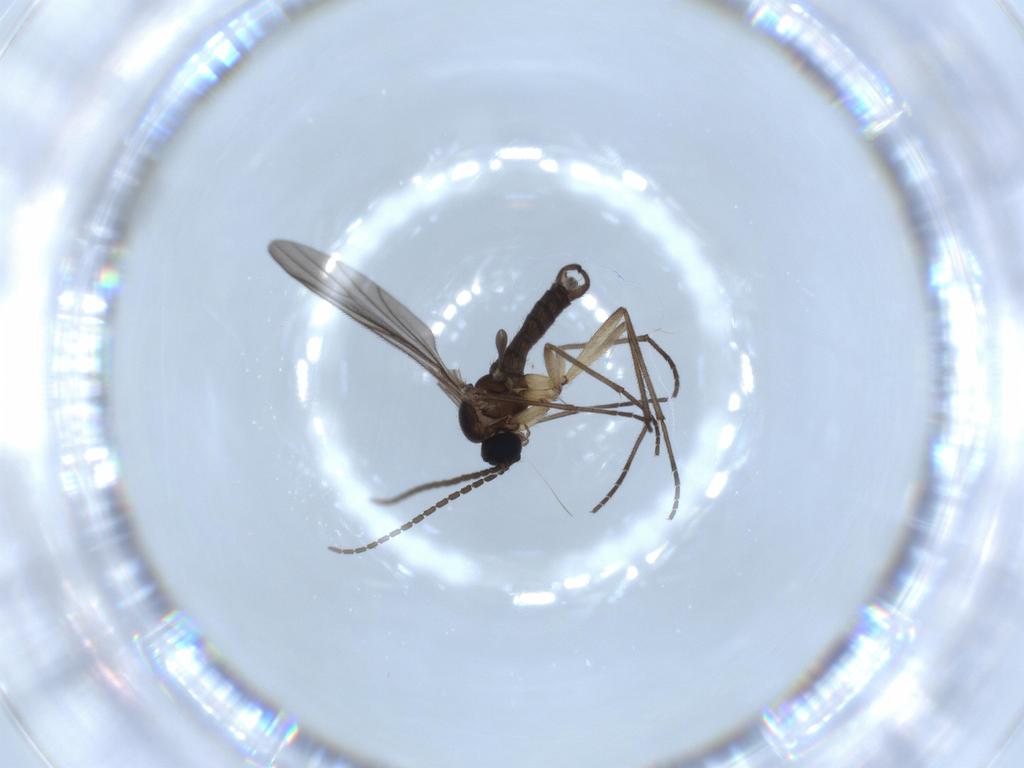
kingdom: Animalia
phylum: Arthropoda
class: Insecta
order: Diptera
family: Sciaridae
